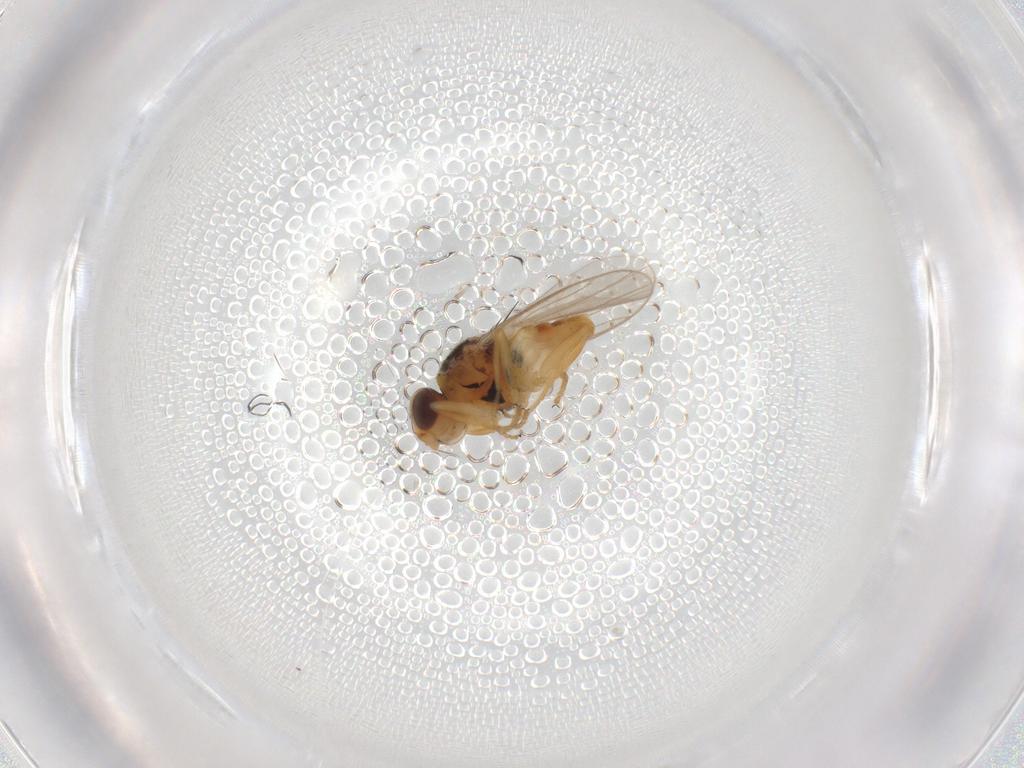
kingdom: Animalia
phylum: Arthropoda
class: Insecta
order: Diptera
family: Chloropidae
